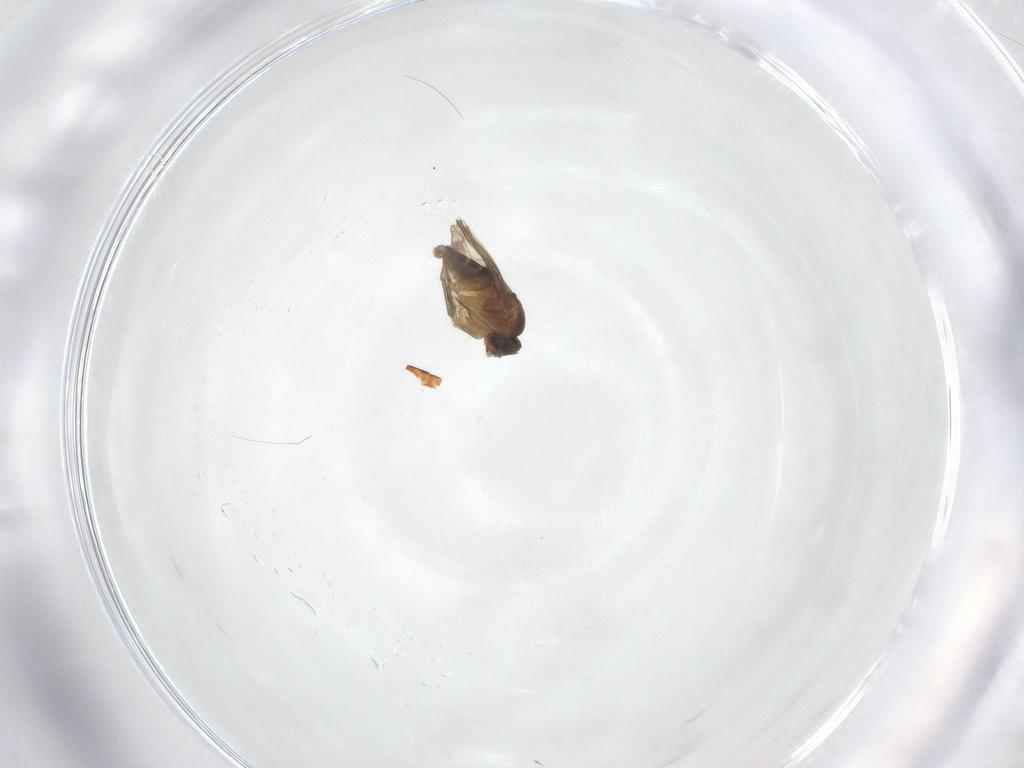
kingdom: Animalia
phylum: Arthropoda
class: Insecta
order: Diptera
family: Phoridae
